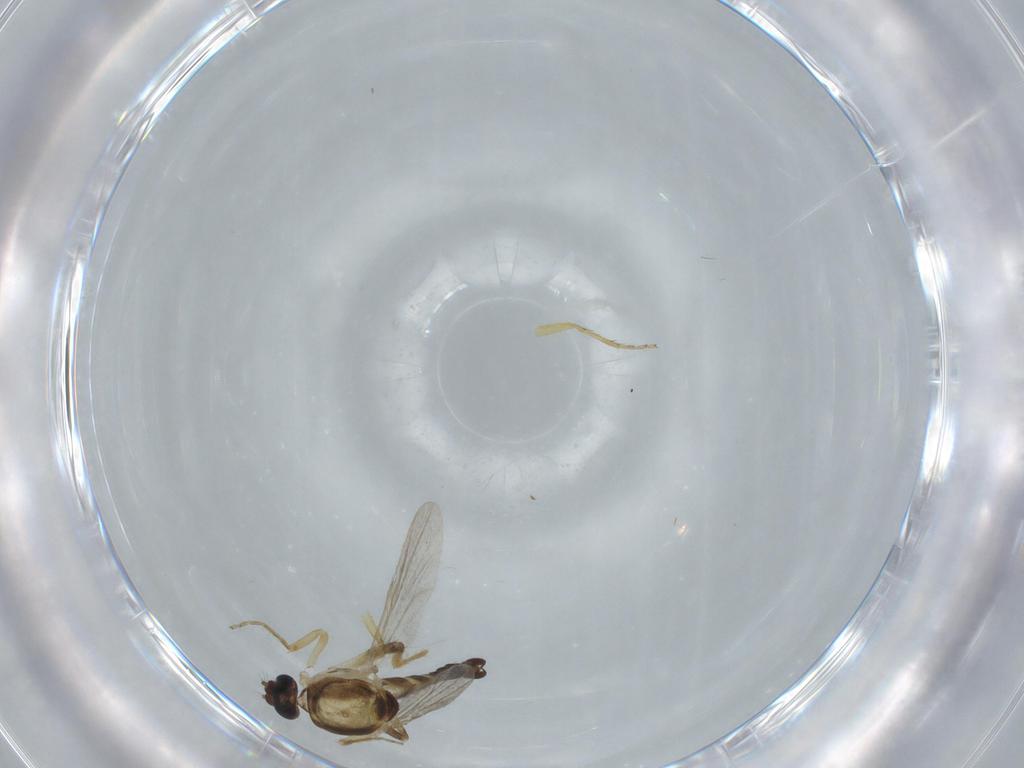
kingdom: Animalia
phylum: Arthropoda
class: Insecta
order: Diptera
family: Ceratopogonidae
